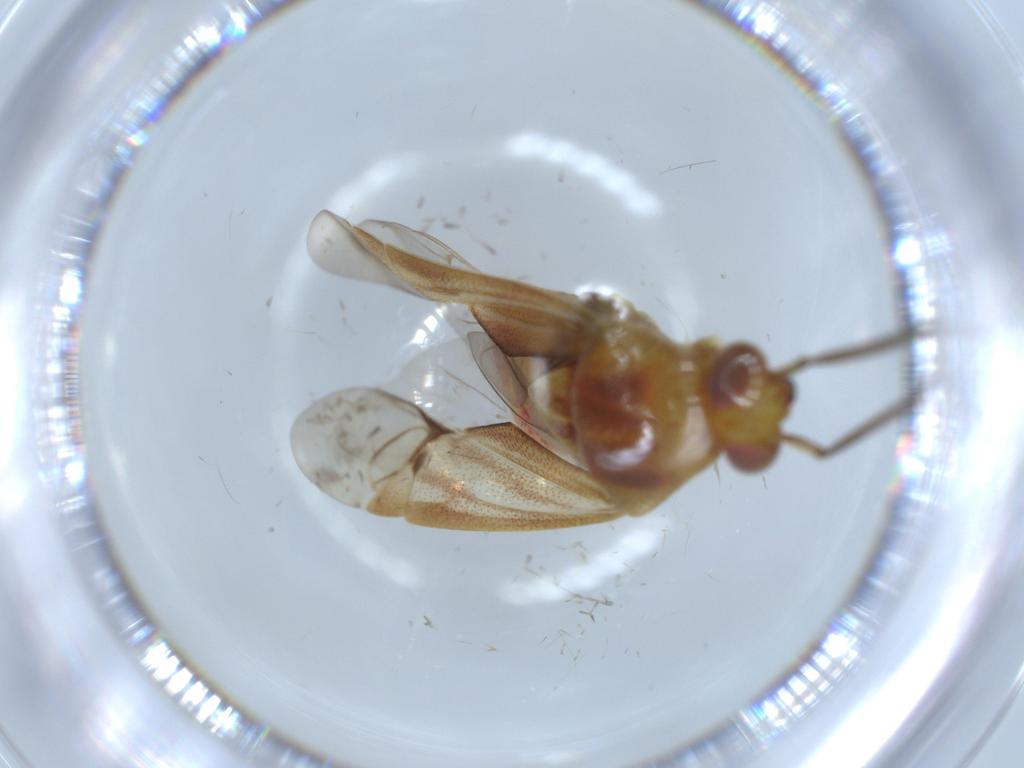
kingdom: Animalia
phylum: Arthropoda
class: Insecta
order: Hemiptera
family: Miridae
